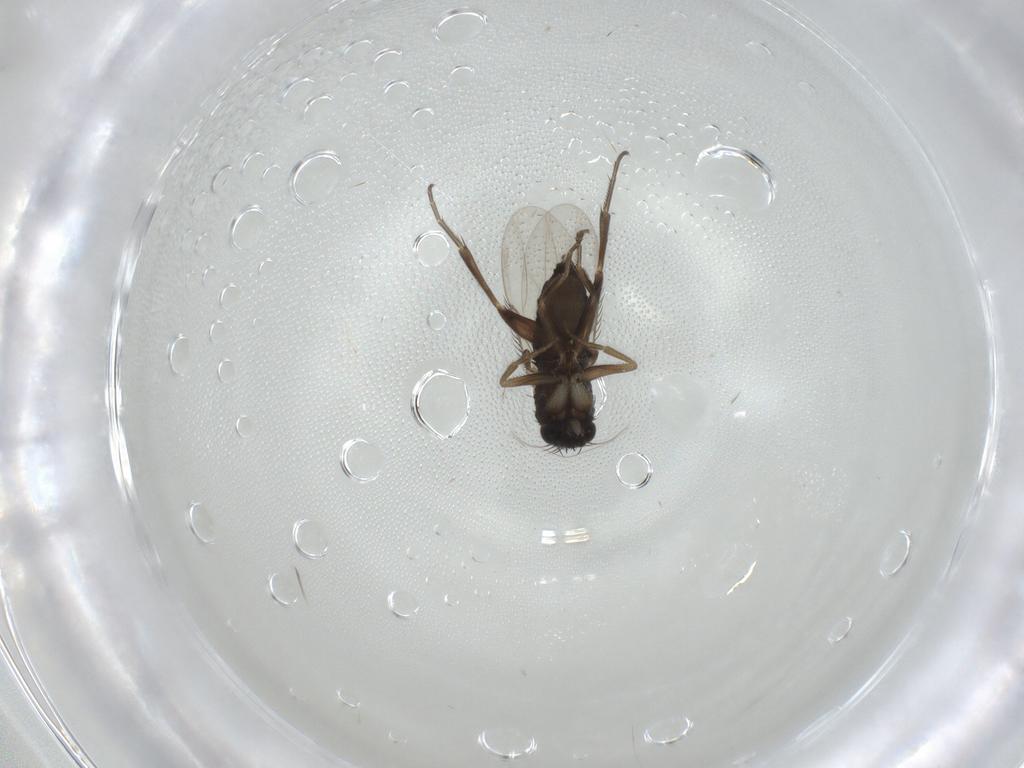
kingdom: Animalia
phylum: Arthropoda
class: Insecta
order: Diptera
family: Phoridae
